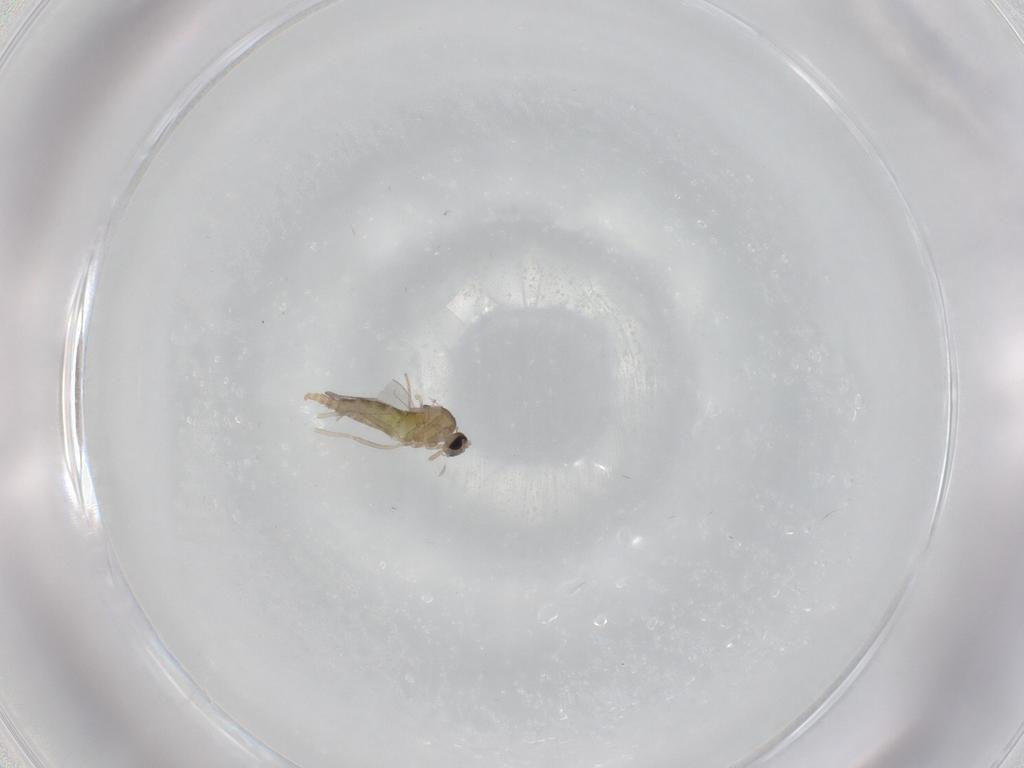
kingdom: Animalia
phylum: Arthropoda
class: Insecta
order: Diptera
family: Cecidomyiidae
